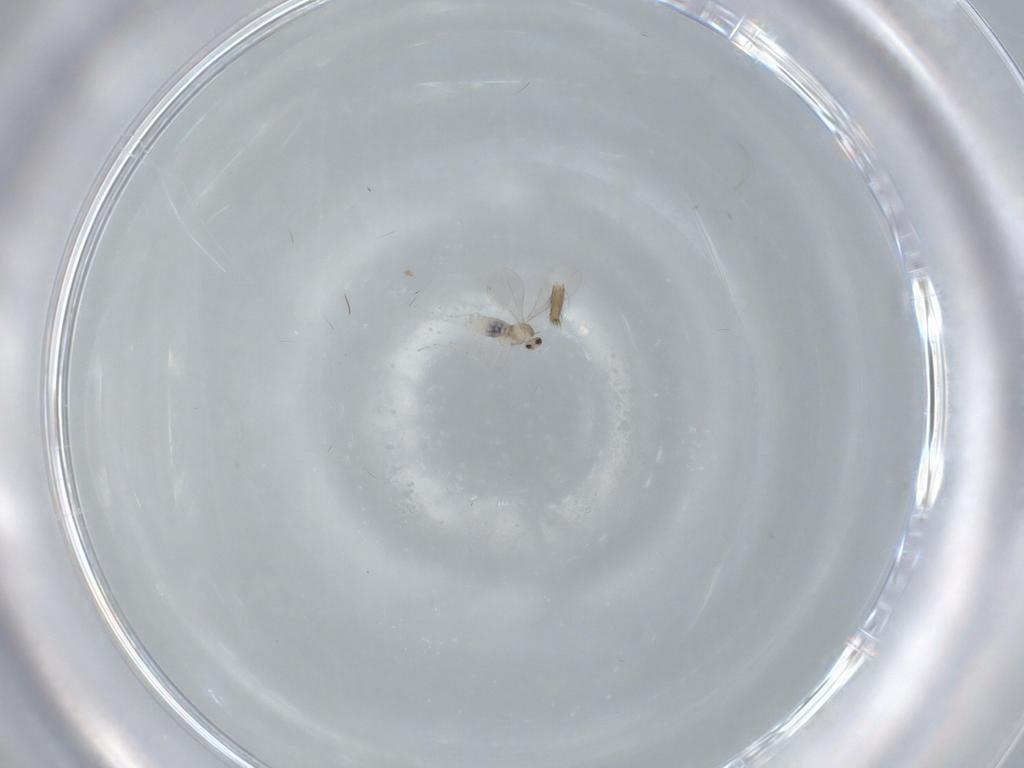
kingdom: Animalia
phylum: Arthropoda
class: Insecta
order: Diptera
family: Cecidomyiidae
